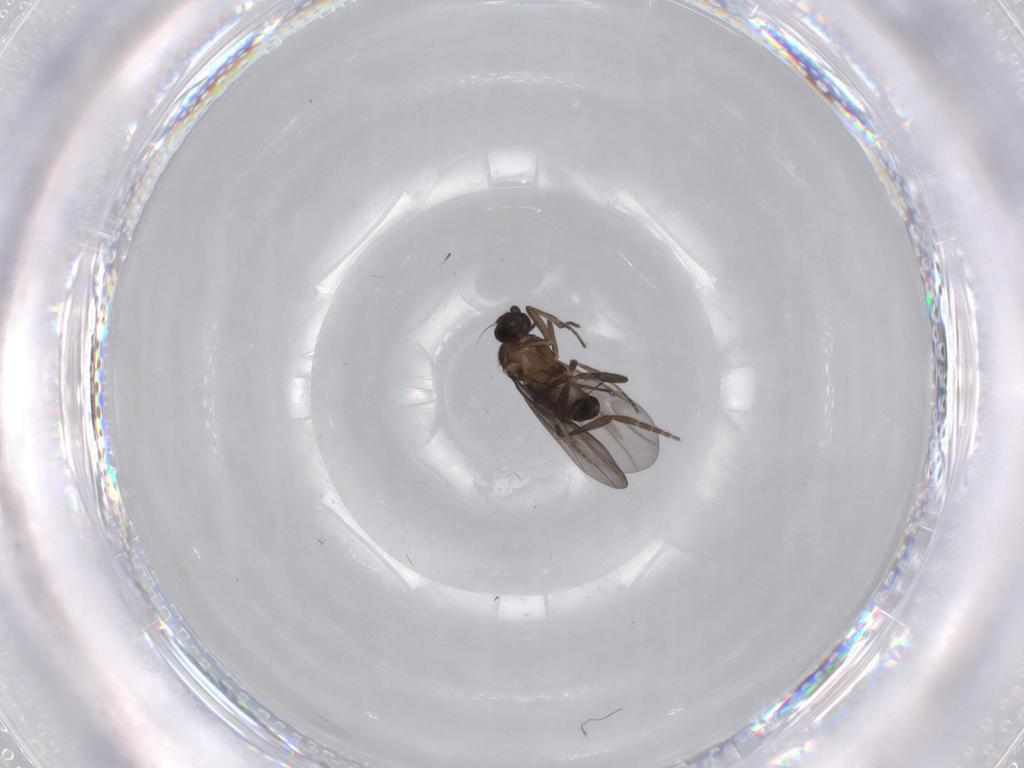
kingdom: Animalia
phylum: Arthropoda
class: Insecta
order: Diptera
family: Phoridae
